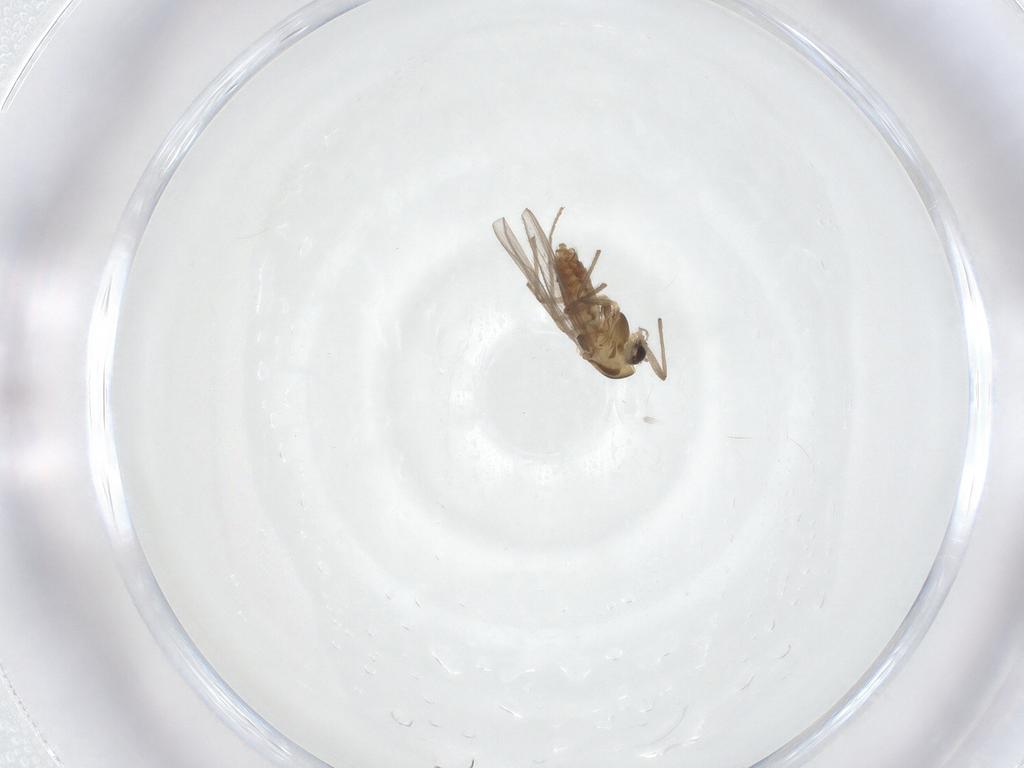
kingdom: Animalia
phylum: Arthropoda
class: Insecta
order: Diptera
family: Chironomidae
